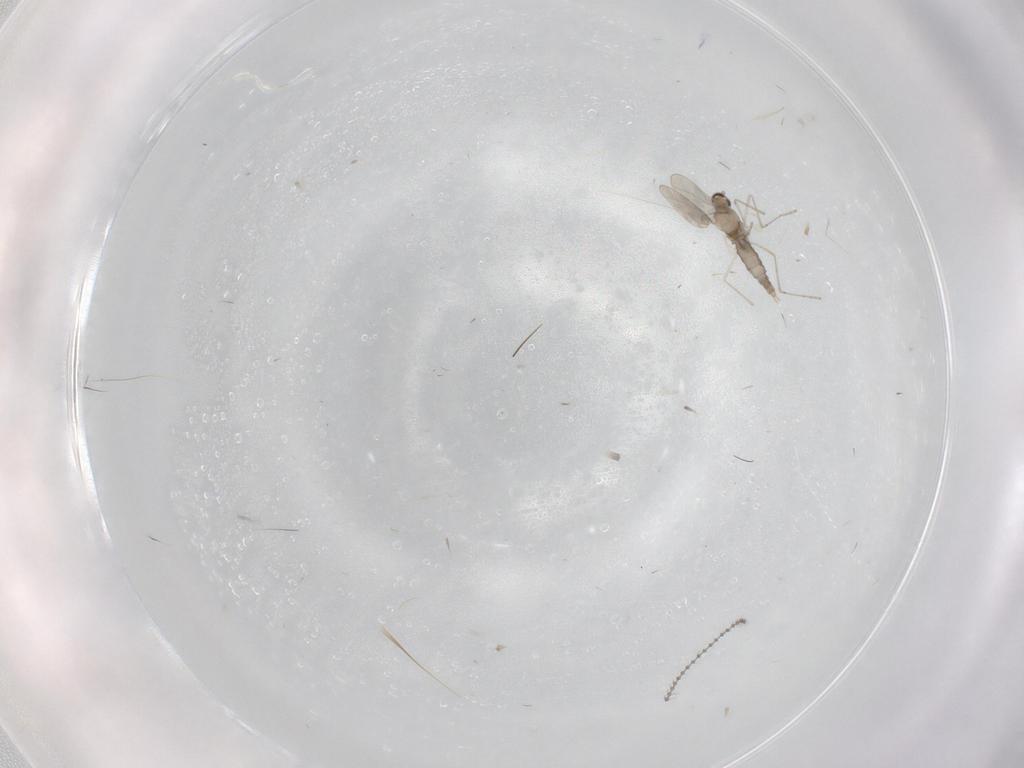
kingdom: Animalia
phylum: Arthropoda
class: Insecta
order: Diptera
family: Cecidomyiidae
